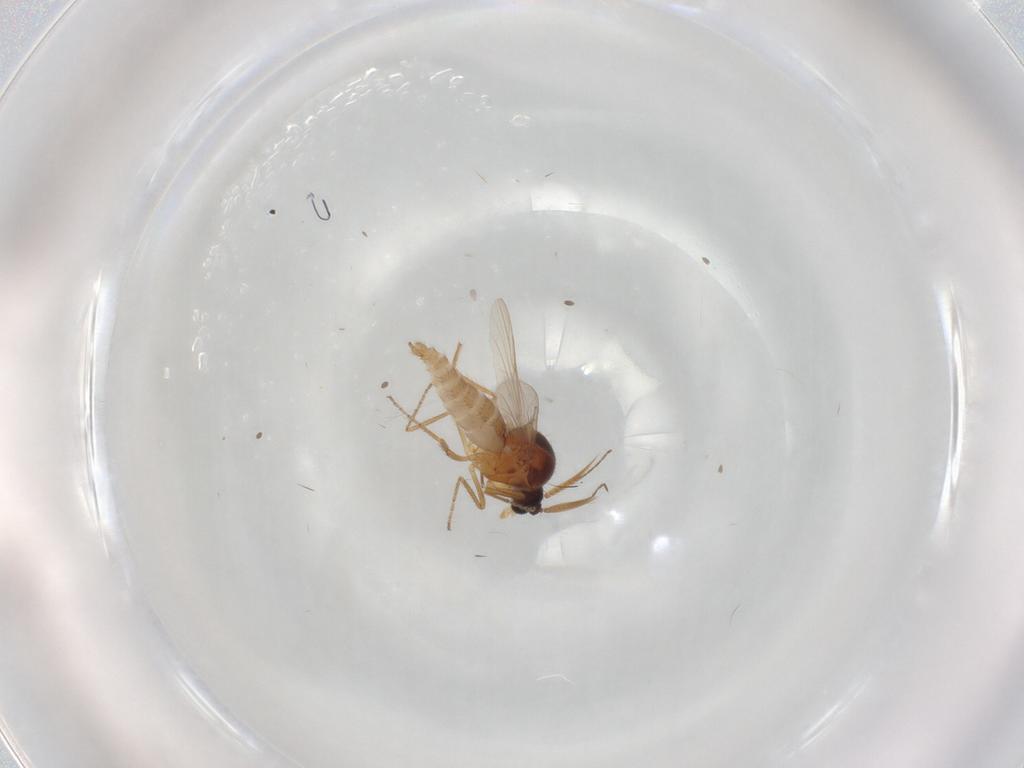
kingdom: Animalia
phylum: Arthropoda
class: Insecta
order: Diptera
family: Ceratopogonidae
